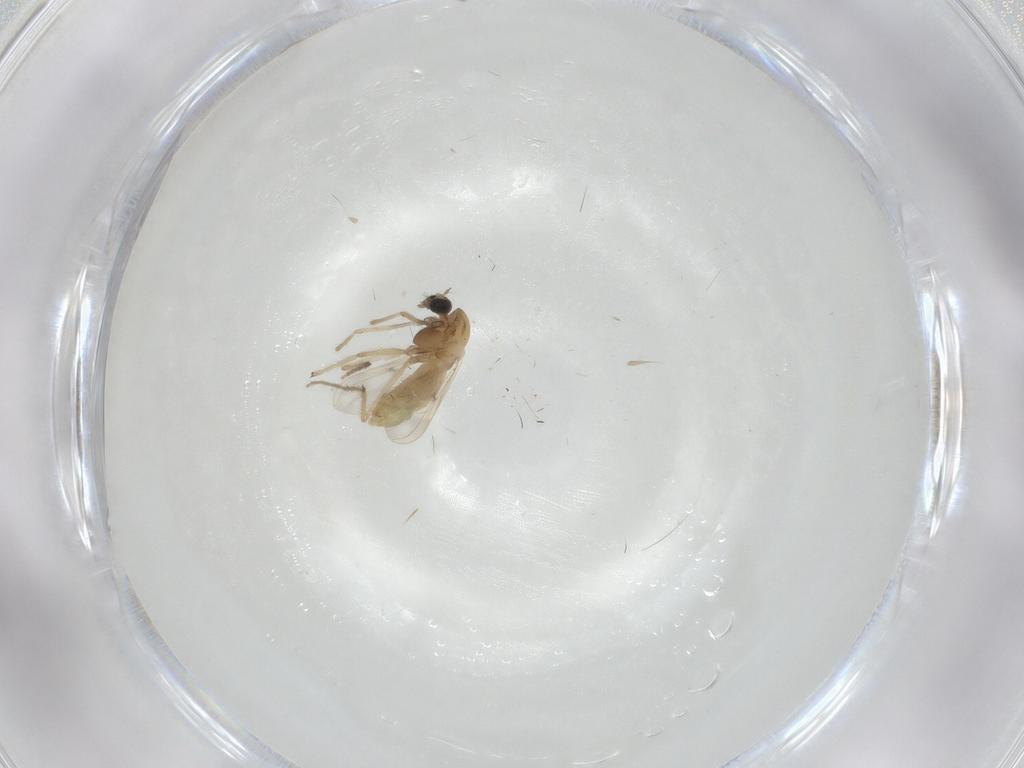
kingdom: Animalia
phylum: Arthropoda
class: Insecta
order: Diptera
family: Chironomidae
